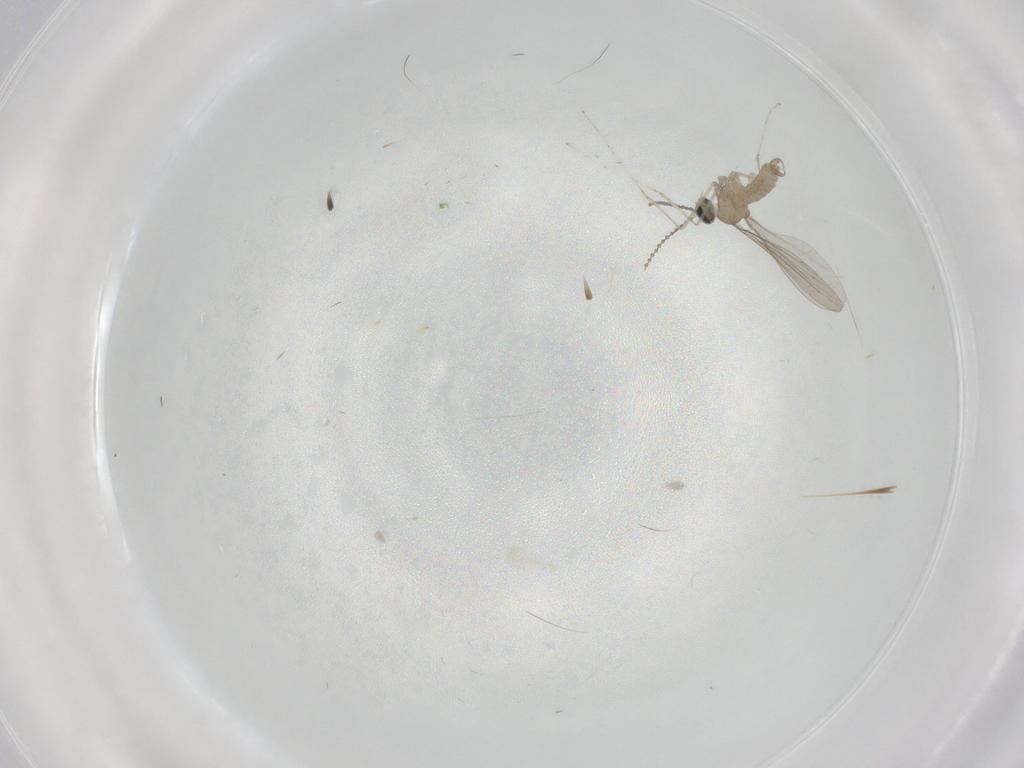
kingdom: Animalia
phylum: Arthropoda
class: Insecta
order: Diptera
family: Cecidomyiidae
